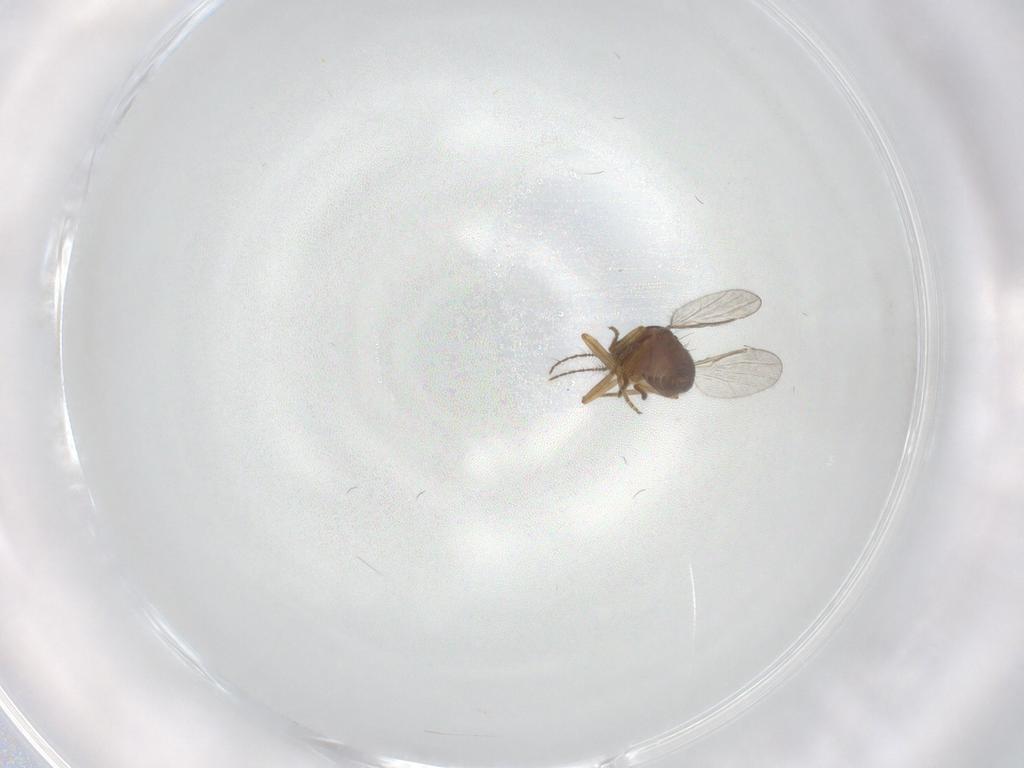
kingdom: Animalia
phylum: Arthropoda
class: Insecta
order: Diptera
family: Ceratopogonidae
